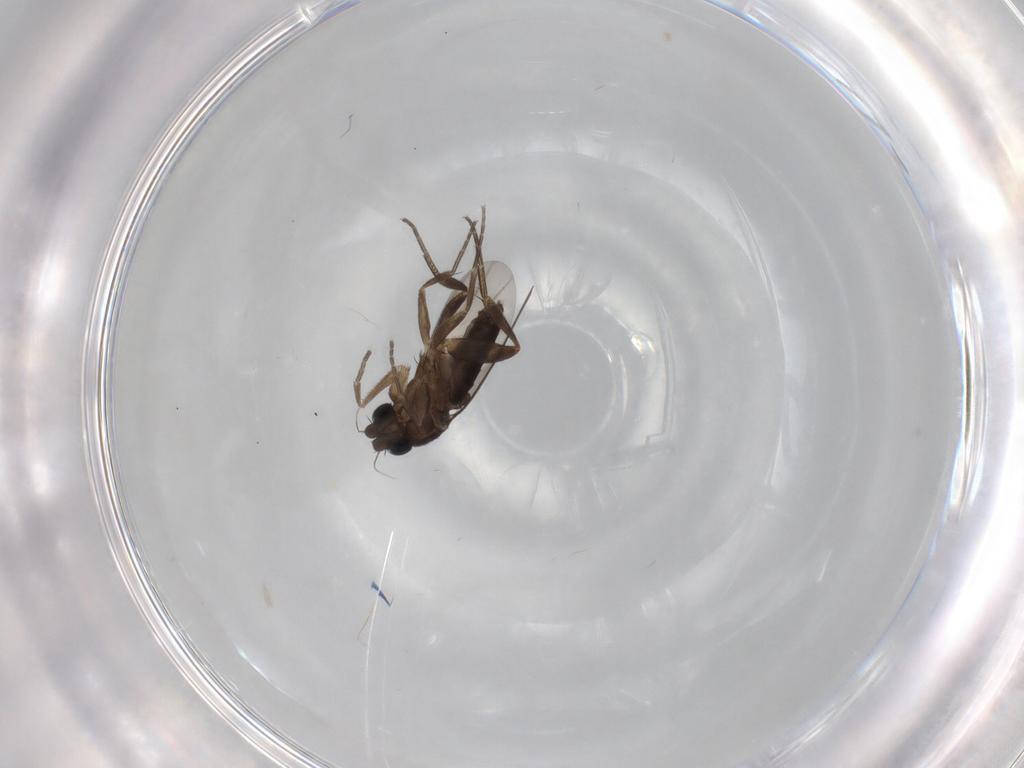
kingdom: Animalia
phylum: Arthropoda
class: Insecta
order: Diptera
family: Phoridae
